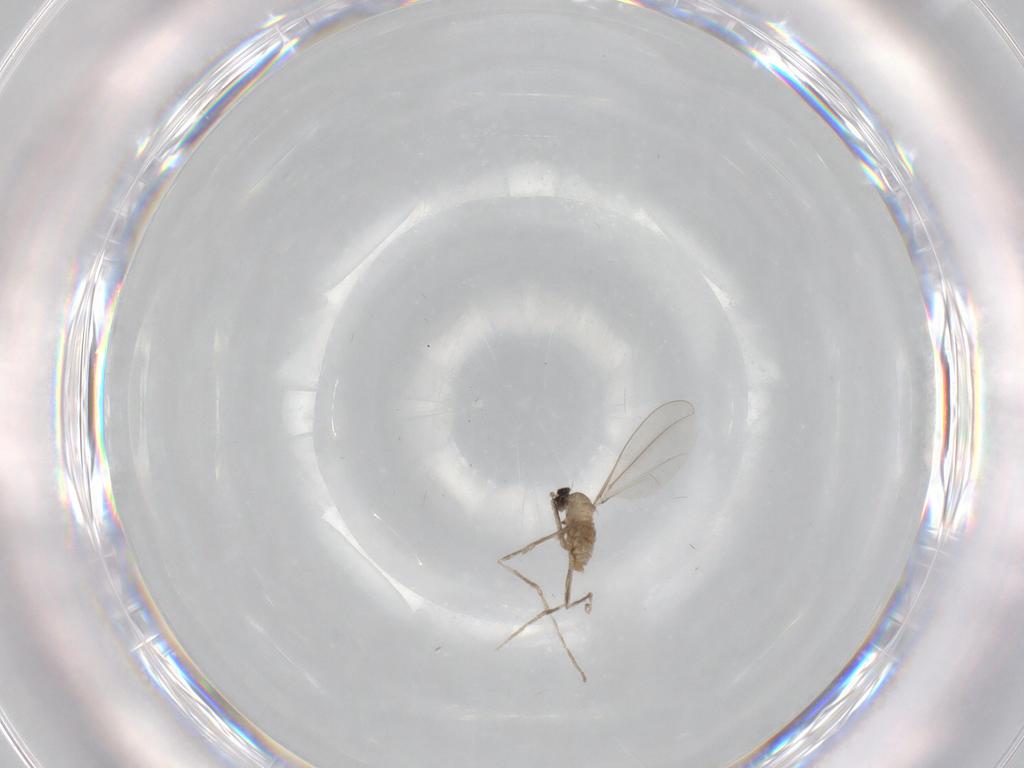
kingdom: Animalia
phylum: Arthropoda
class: Insecta
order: Diptera
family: Cecidomyiidae
